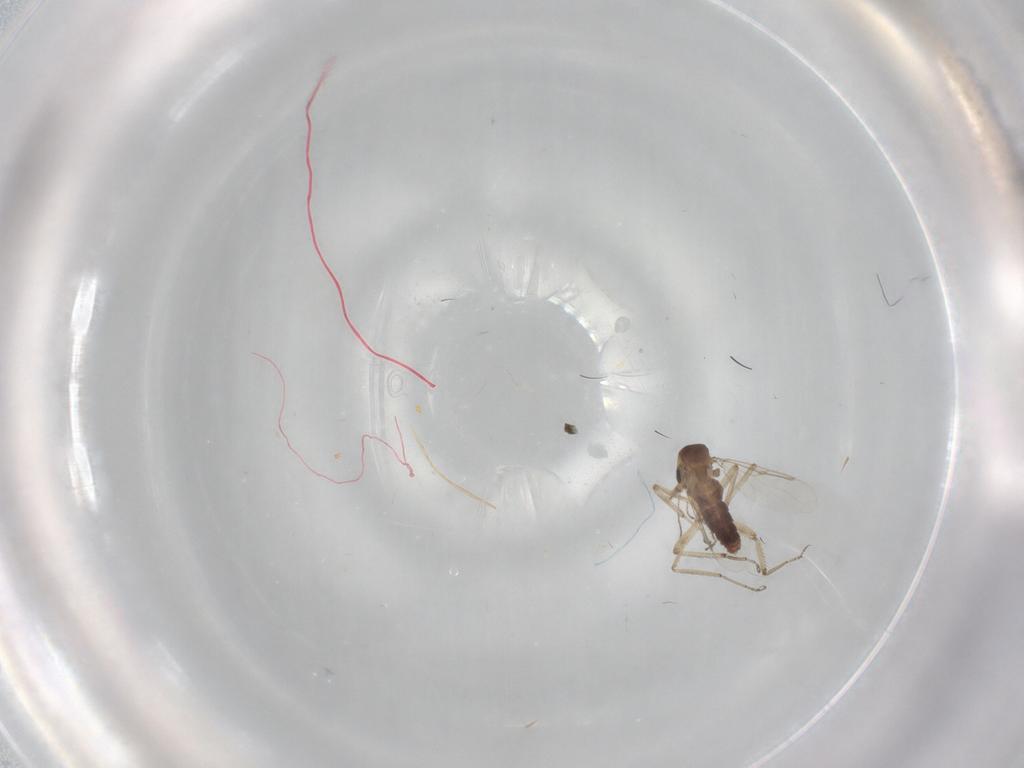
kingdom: Animalia
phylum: Arthropoda
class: Insecta
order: Diptera
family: Ceratopogonidae
